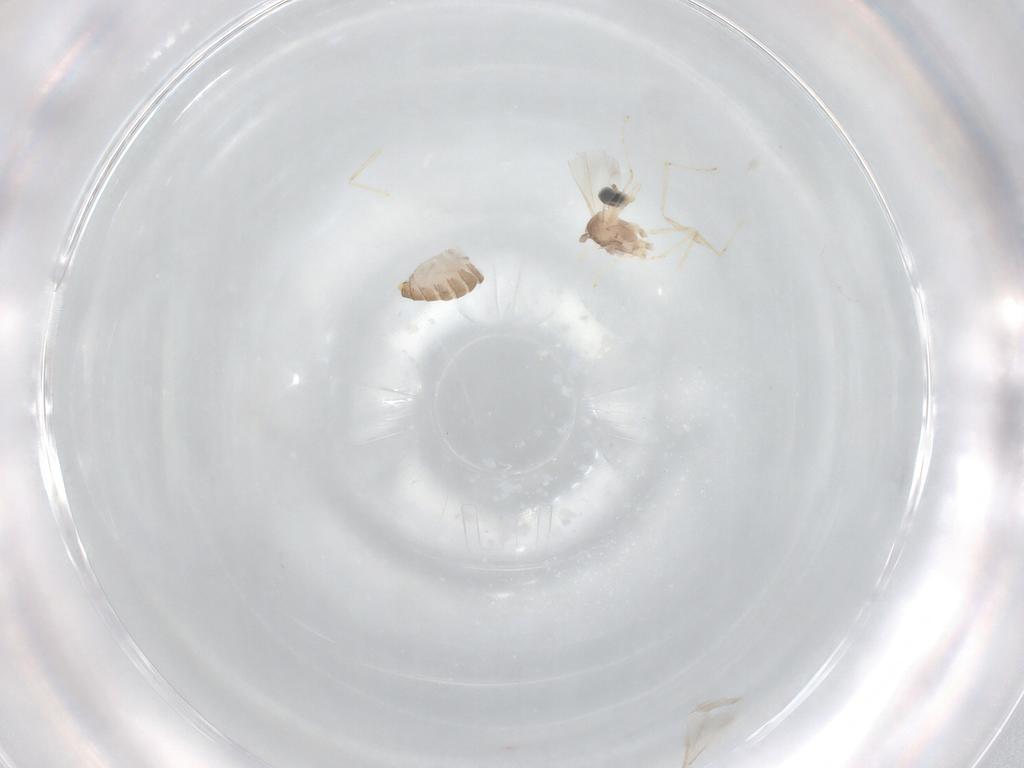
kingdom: Animalia
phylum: Arthropoda
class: Insecta
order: Diptera
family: Cecidomyiidae
